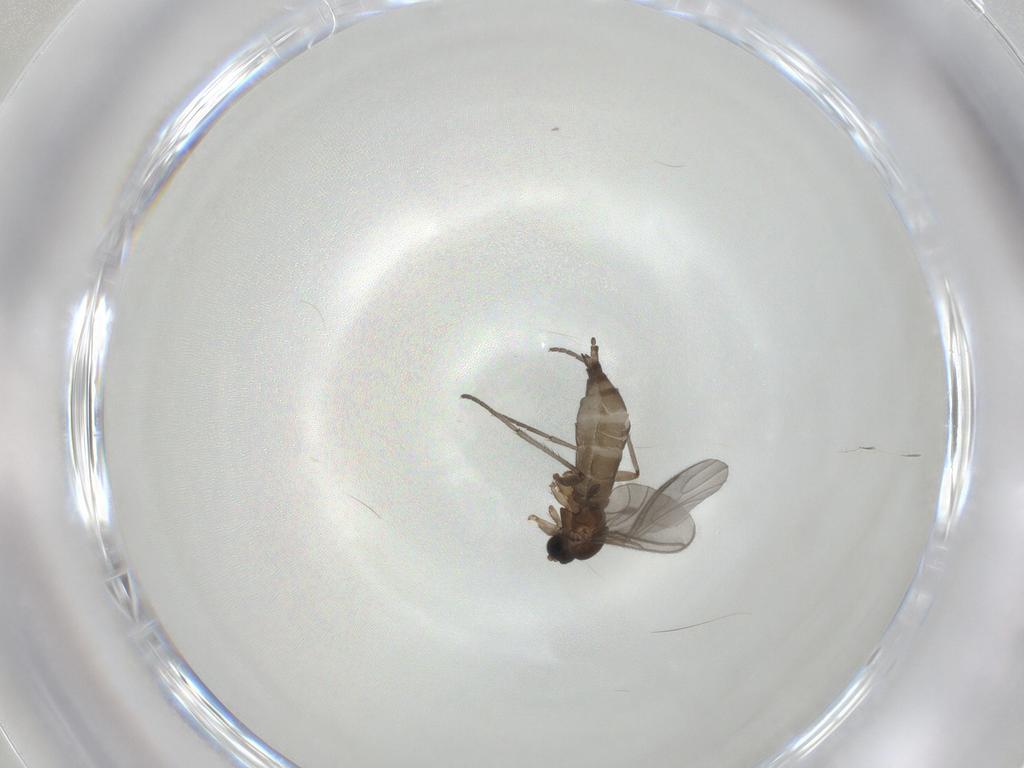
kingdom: Animalia
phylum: Arthropoda
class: Insecta
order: Diptera
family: Sciaridae
